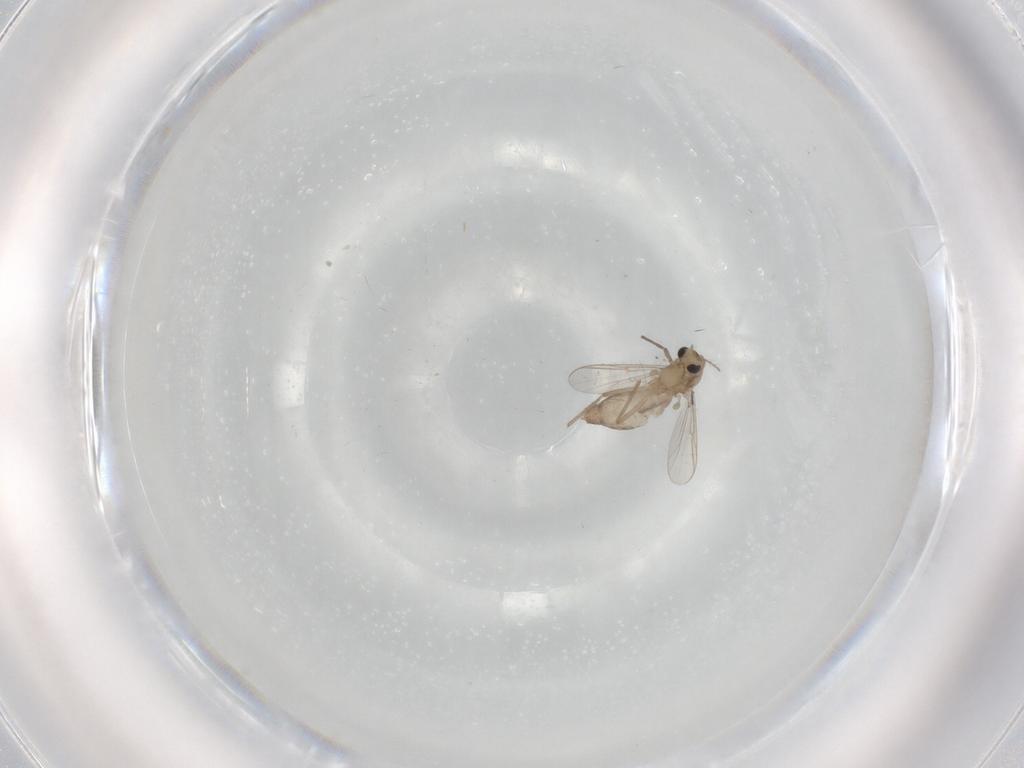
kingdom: Animalia
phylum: Arthropoda
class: Insecta
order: Diptera
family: Chironomidae
